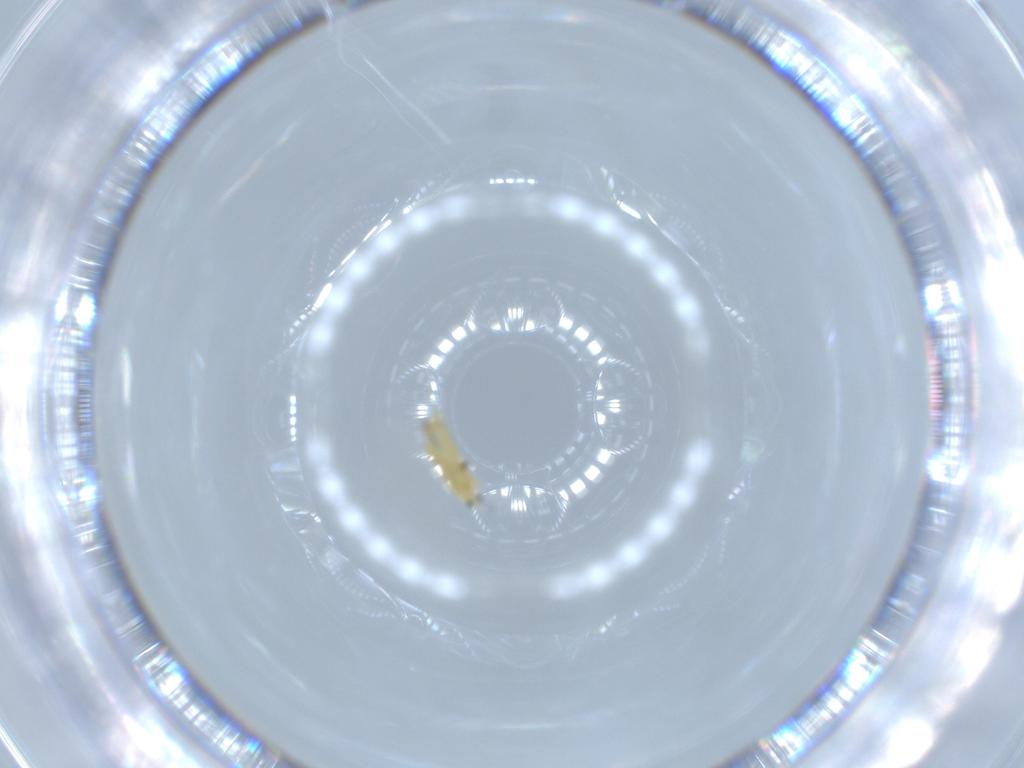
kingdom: Animalia
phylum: Arthropoda
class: Insecta
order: Thysanoptera
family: Thripidae
